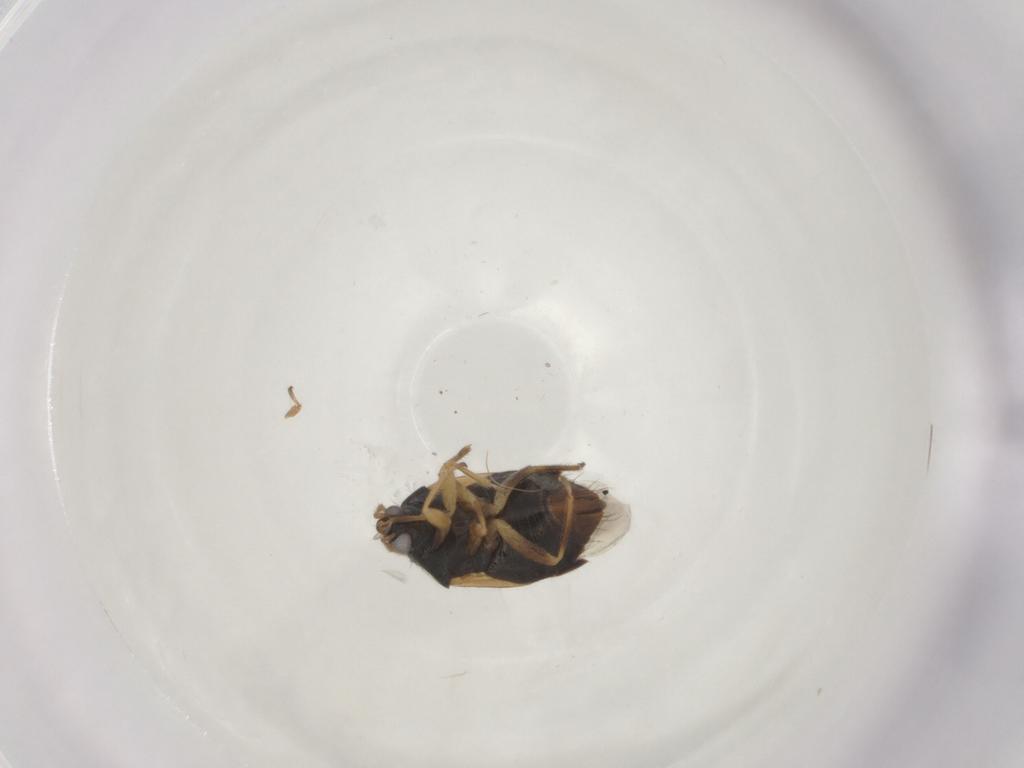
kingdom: Animalia
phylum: Arthropoda
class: Insecta
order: Hemiptera
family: Anthocoridae
